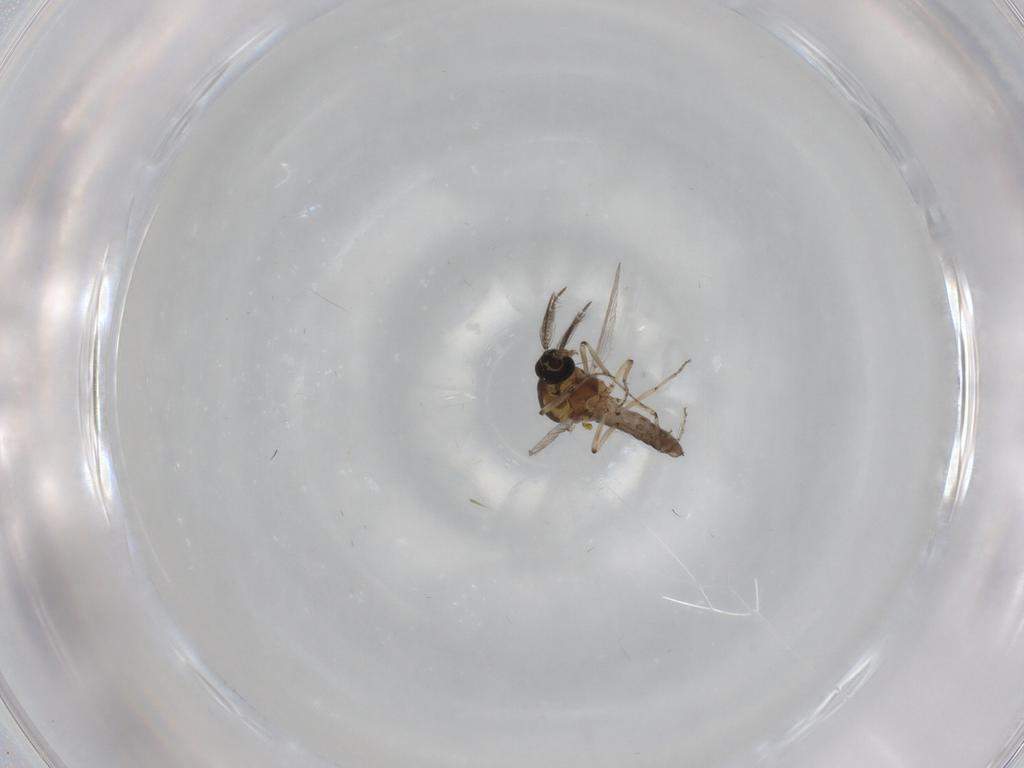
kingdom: Animalia
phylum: Arthropoda
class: Insecta
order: Diptera
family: Ceratopogonidae
